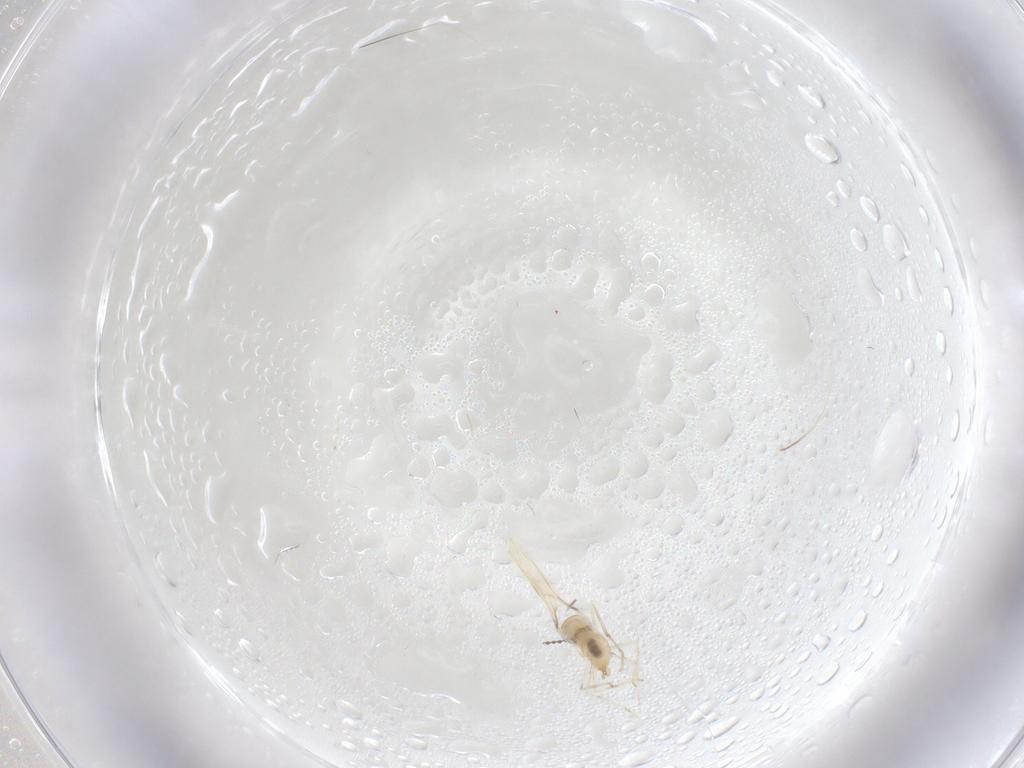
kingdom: Animalia
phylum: Arthropoda
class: Insecta
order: Diptera
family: Cecidomyiidae
